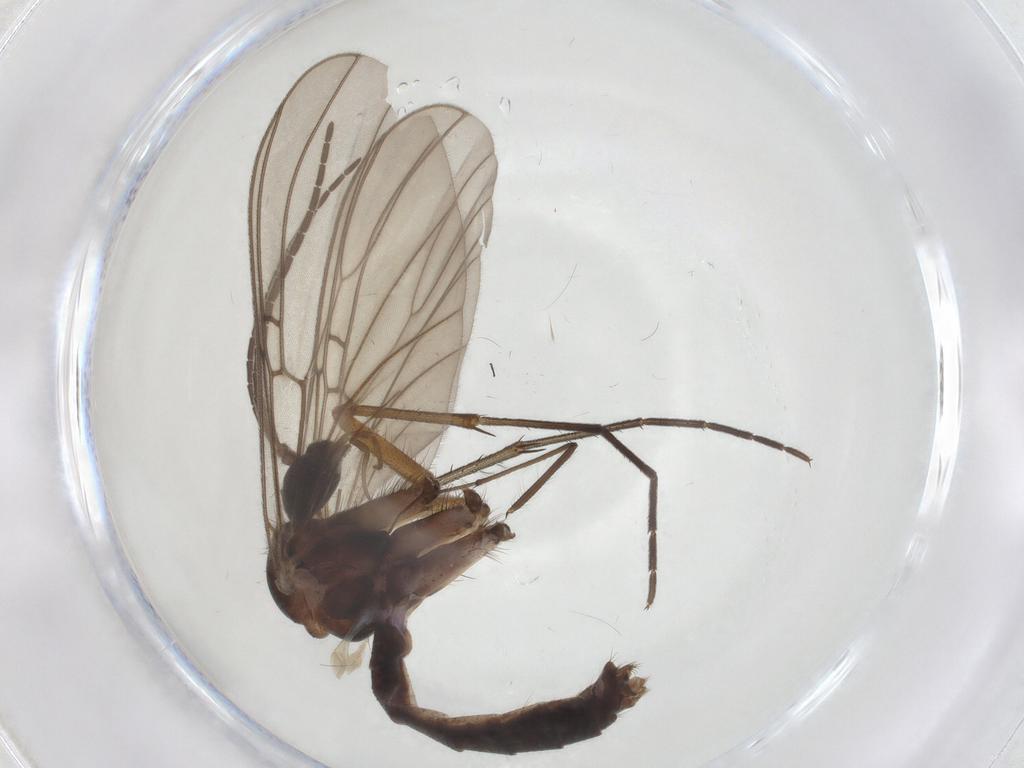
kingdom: Animalia
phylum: Arthropoda
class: Insecta
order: Diptera
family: Mycetophilidae
